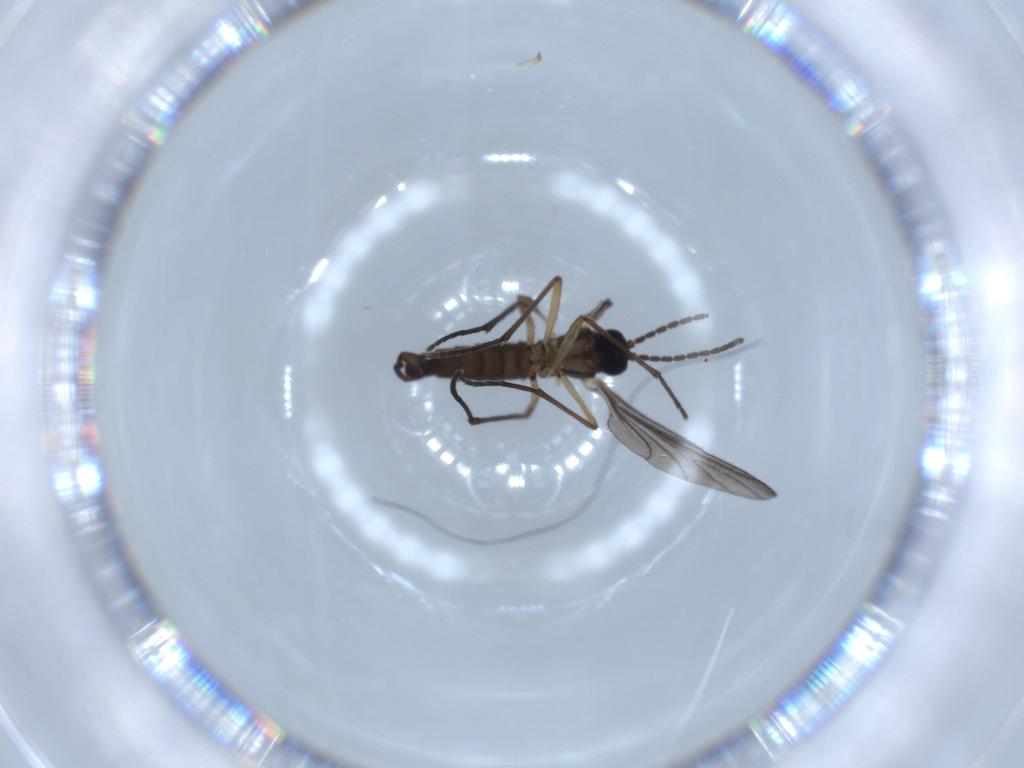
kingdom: Animalia
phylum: Arthropoda
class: Insecta
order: Diptera
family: Sciaridae
